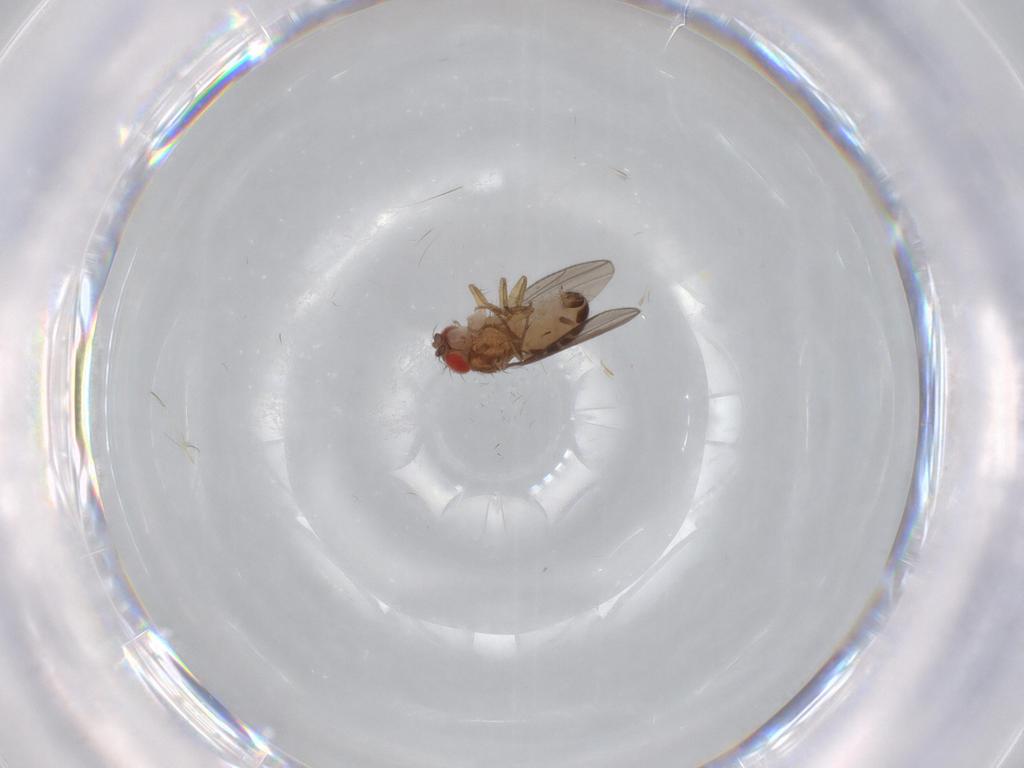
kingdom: Animalia
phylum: Arthropoda
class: Insecta
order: Diptera
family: Drosophilidae
